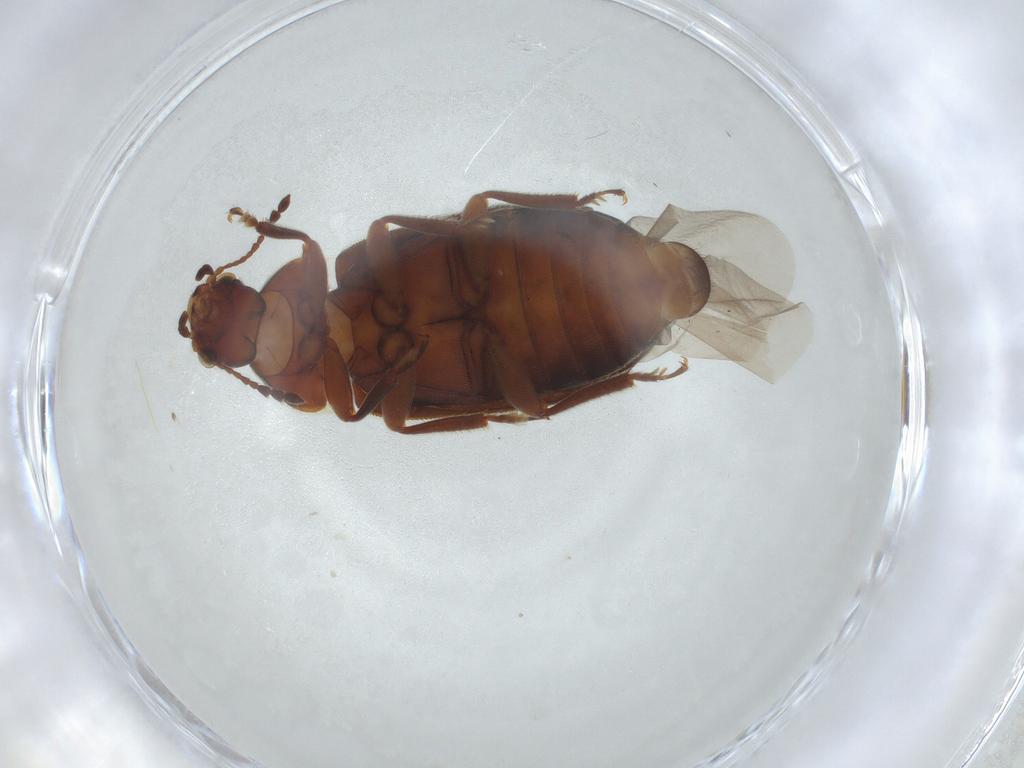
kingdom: Animalia
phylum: Arthropoda
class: Insecta
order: Coleoptera
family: Byturidae
